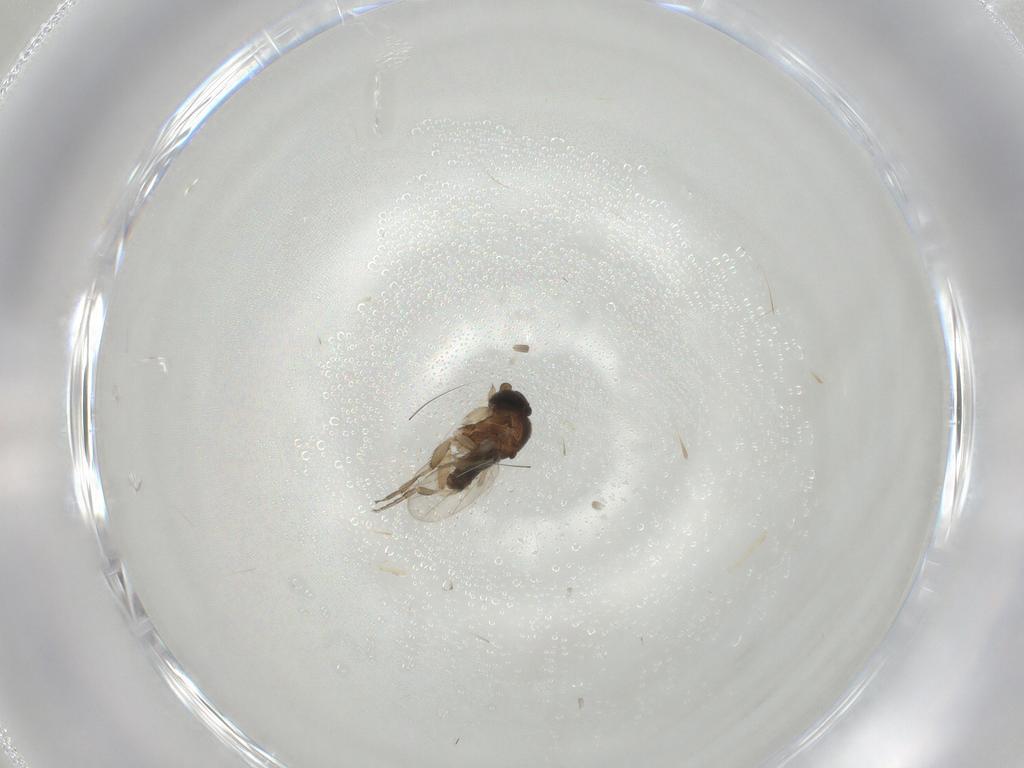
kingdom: Animalia
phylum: Arthropoda
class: Insecta
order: Diptera
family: Phoridae
